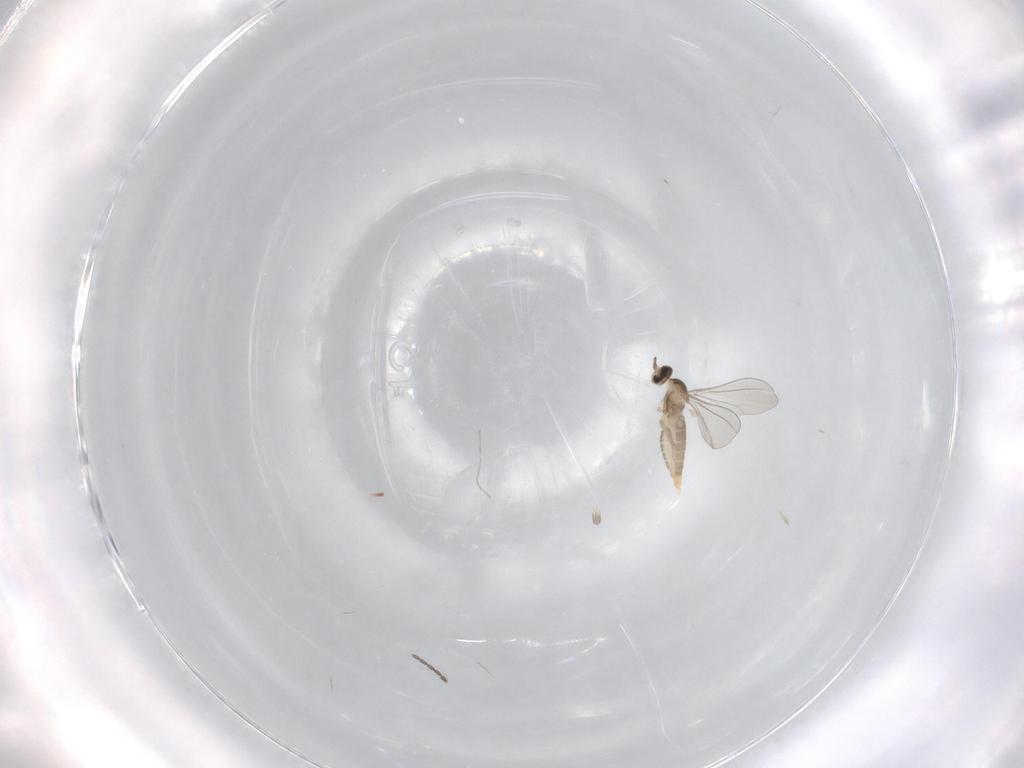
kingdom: Animalia
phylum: Arthropoda
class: Insecta
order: Diptera
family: Cecidomyiidae
